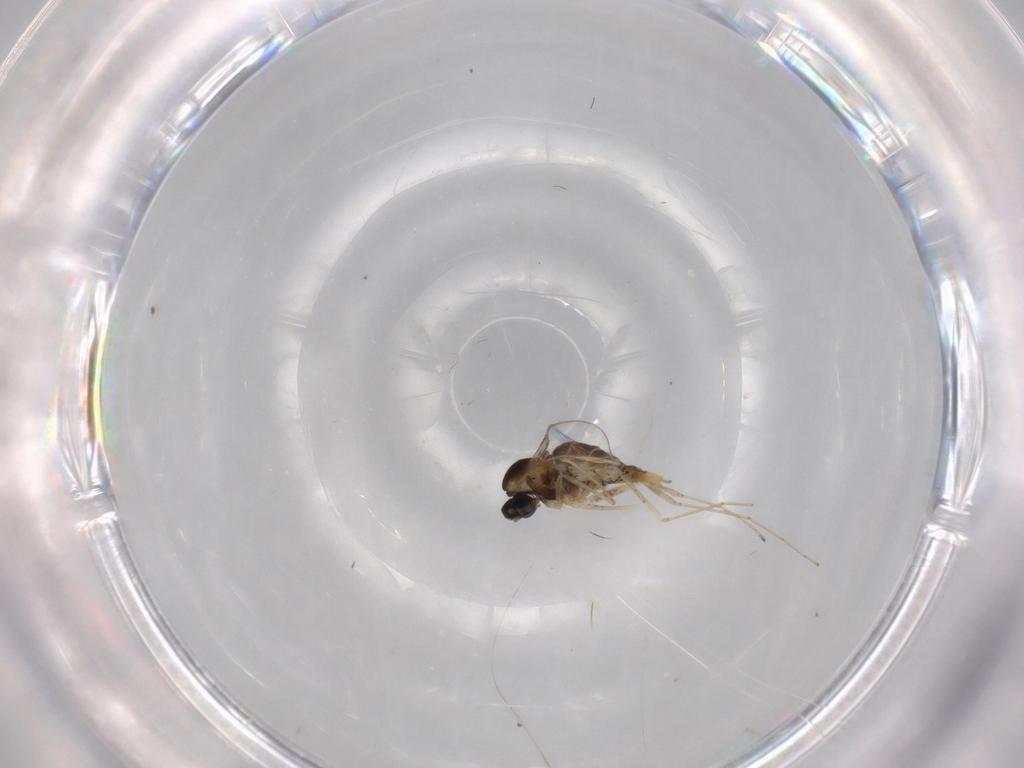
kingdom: Animalia
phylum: Arthropoda
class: Insecta
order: Diptera
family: Cecidomyiidae
